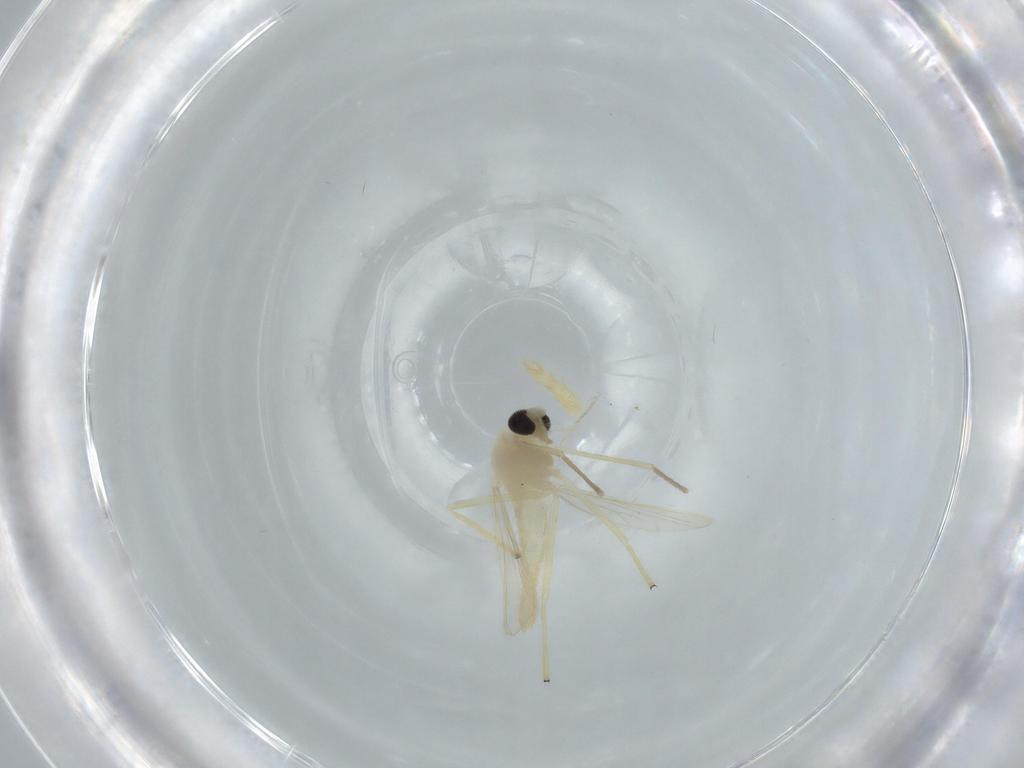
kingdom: Animalia
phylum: Arthropoda
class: Insecta
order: Diptera
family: Chironomidae
